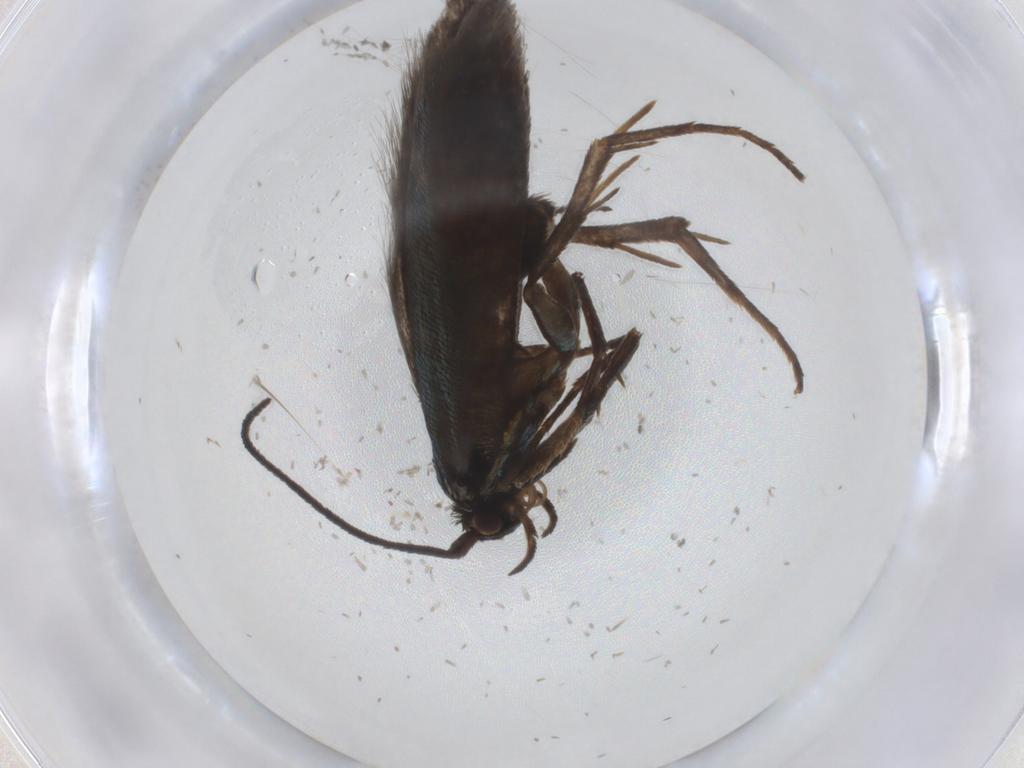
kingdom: Animalia
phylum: Arthropoda
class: Insecta
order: Lepidoptera
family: Argyresthiidae
